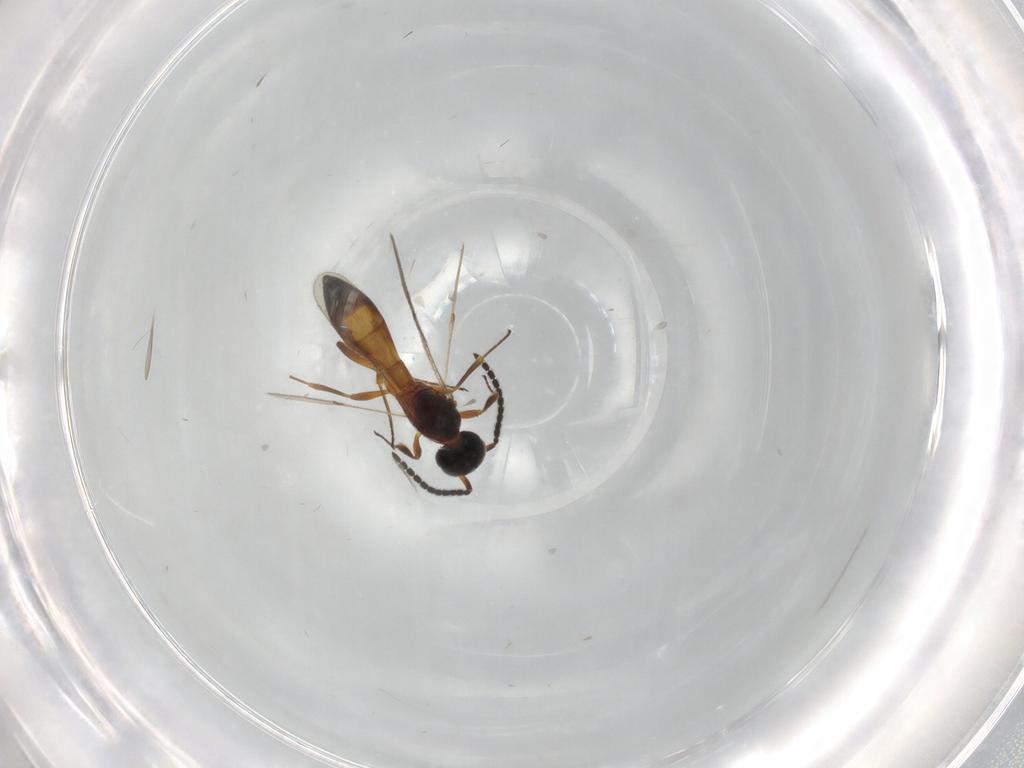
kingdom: Animalia
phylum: Arthropoda
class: Insecta
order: Hymenoptera
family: Scelionidae
